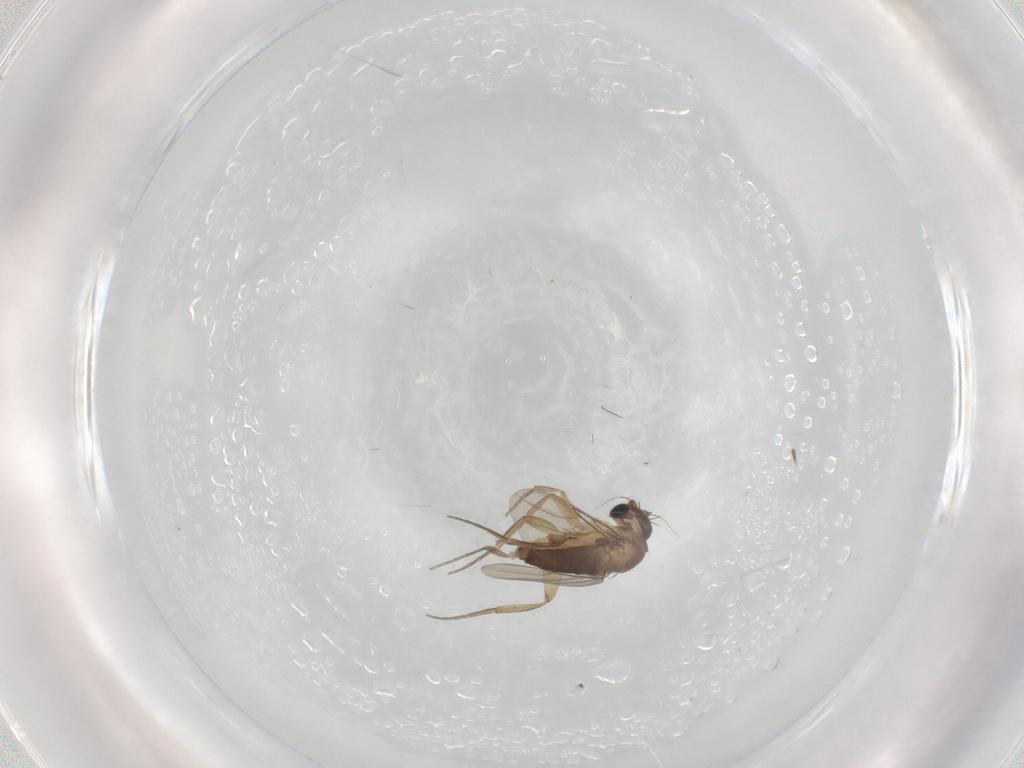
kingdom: Animalia
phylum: Arthropoda
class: Insecta
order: Diptera
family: Phoridae
